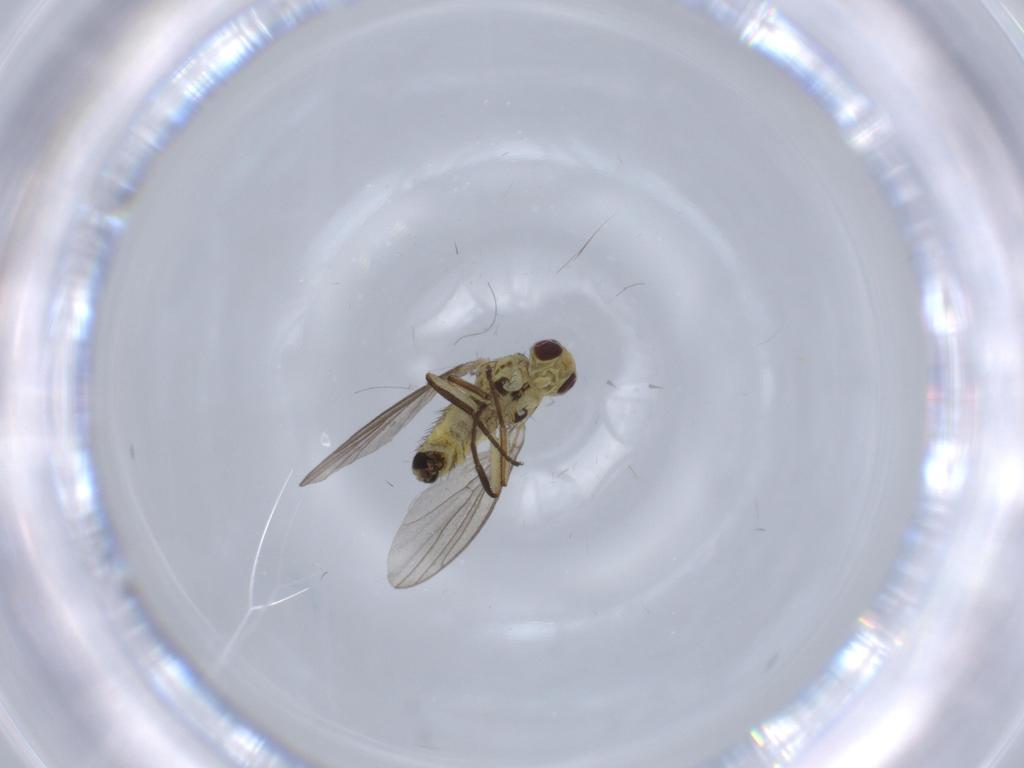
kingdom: Animalia
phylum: Arthropoda
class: Insecta
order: Diptera
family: Agromyzidae
